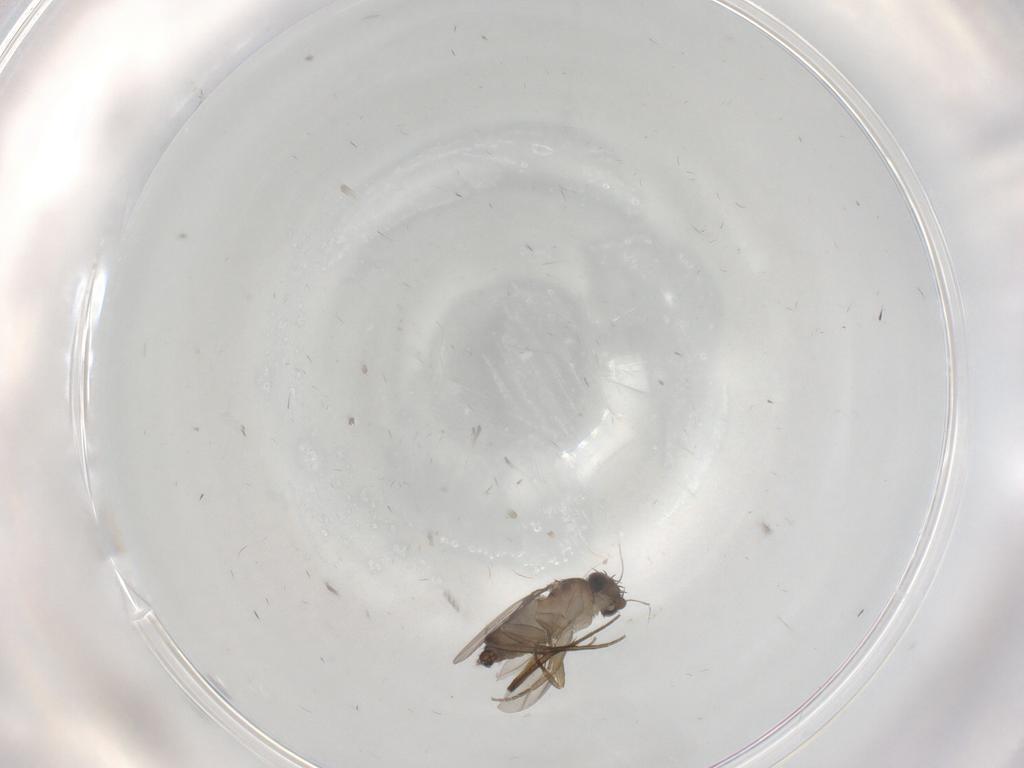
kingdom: Animalia
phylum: Arthropoda
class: Insecta
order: Diptera
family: Phoridae
